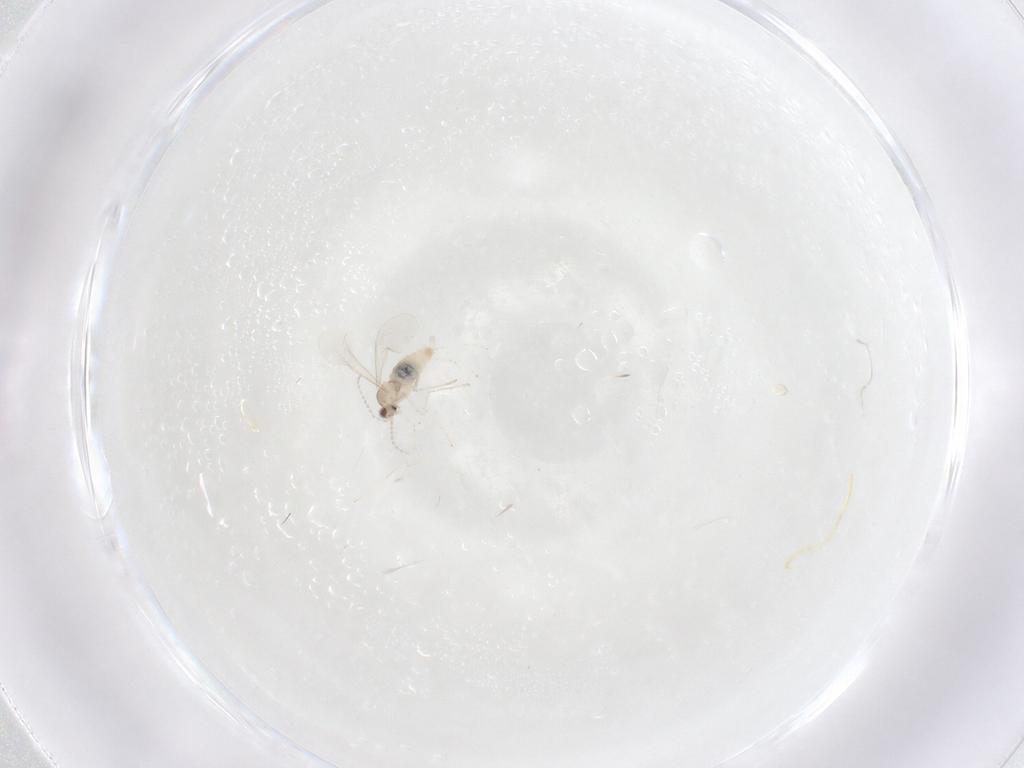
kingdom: Animalia
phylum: Arthropoda
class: Insecta
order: Diptera
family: Cecidomyiidae
